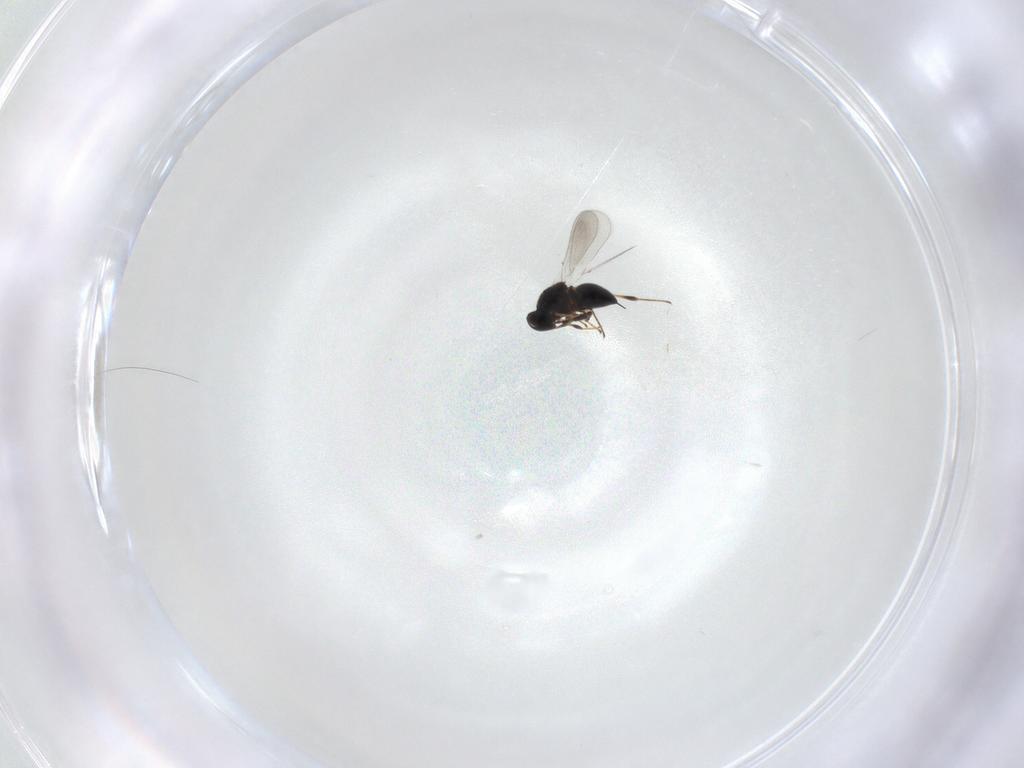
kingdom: Animalia
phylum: Arthropoda
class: Insecta
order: Hymenoptera
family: Platygastridae
